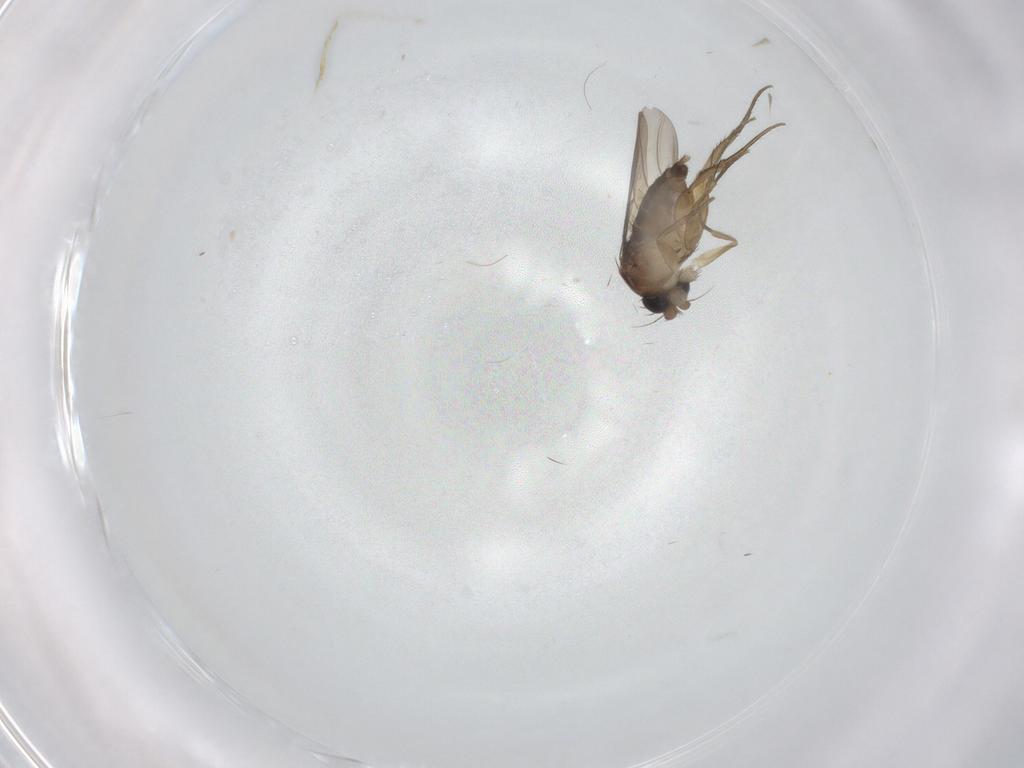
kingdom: Animalia
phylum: Arthropoda
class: Insecta
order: Diptera
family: Phoridae
